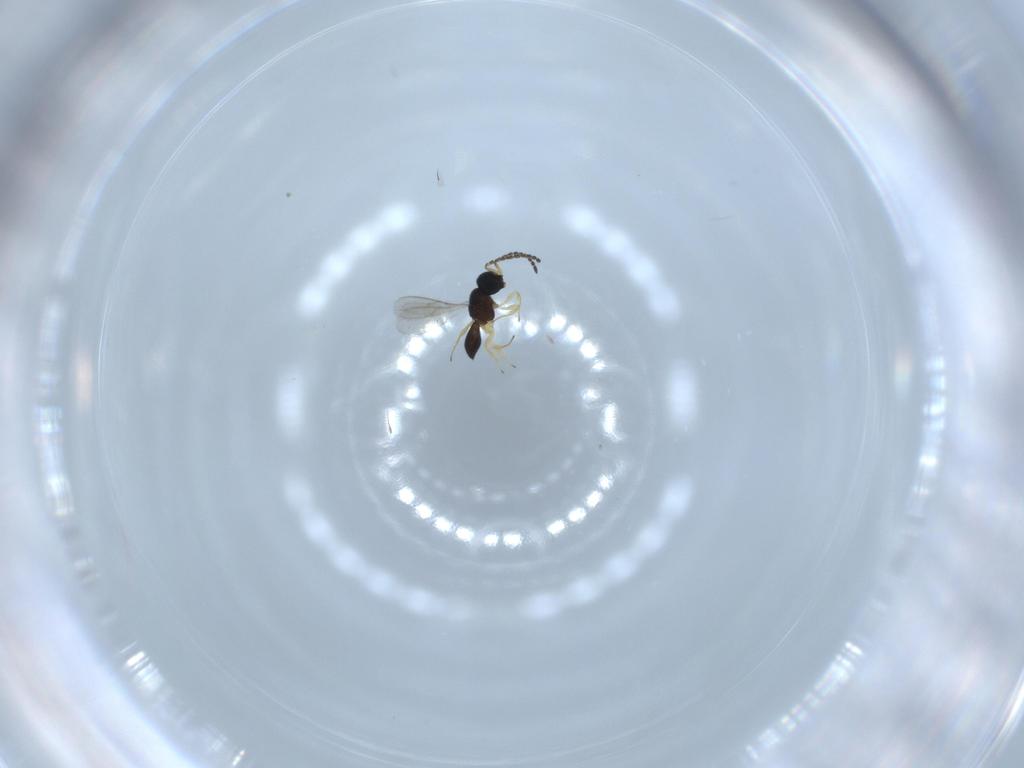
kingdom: Animalia
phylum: Arthropoda
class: Insecta
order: Hymenoptera
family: Scelionidae
